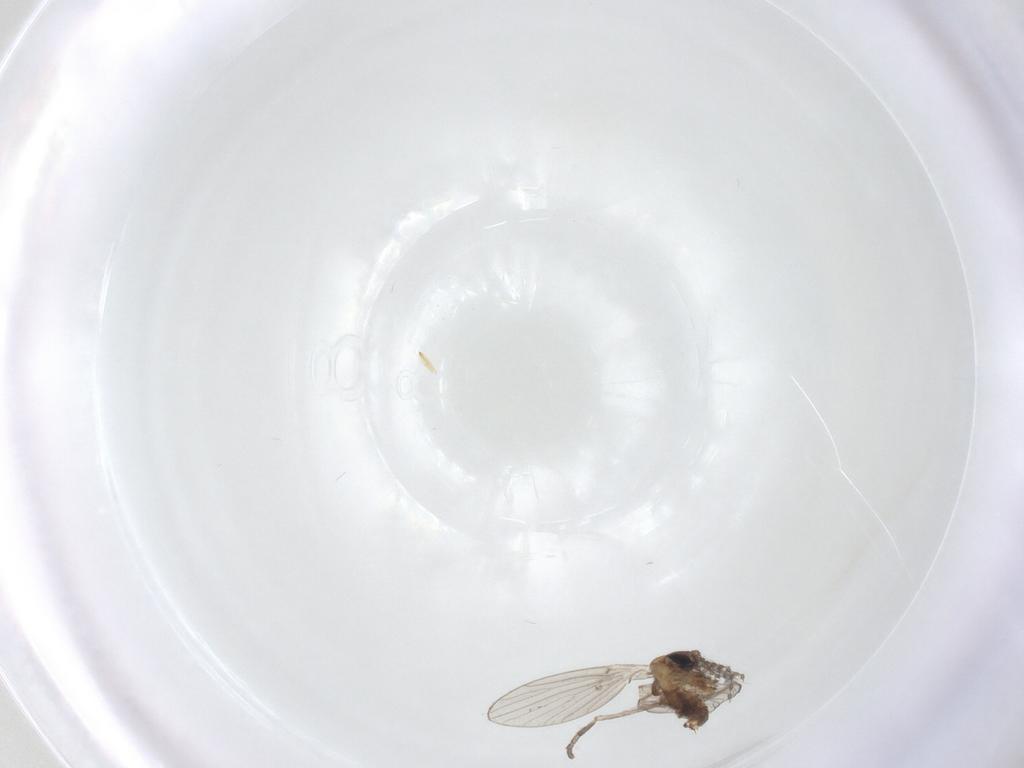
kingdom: Animalia
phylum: Arthropoda
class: Insecta
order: Diptera
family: Psychodidae
